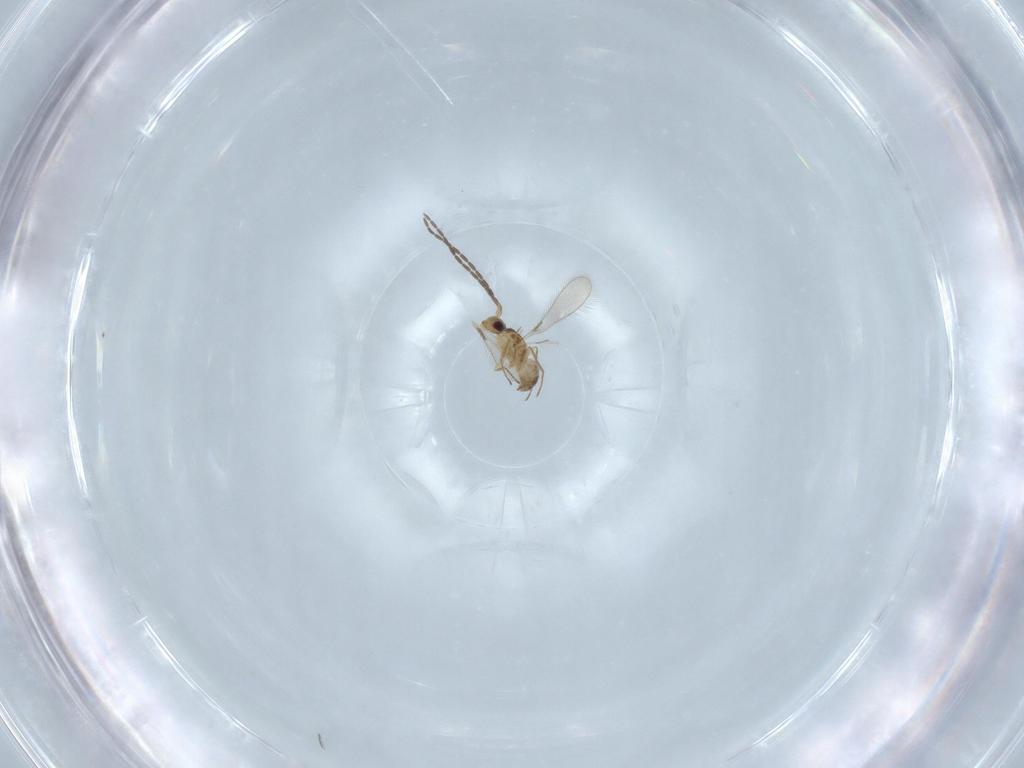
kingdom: Animalia
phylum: Arthropoda
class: Insecta
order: Hymenoptera
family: Mymaridae
